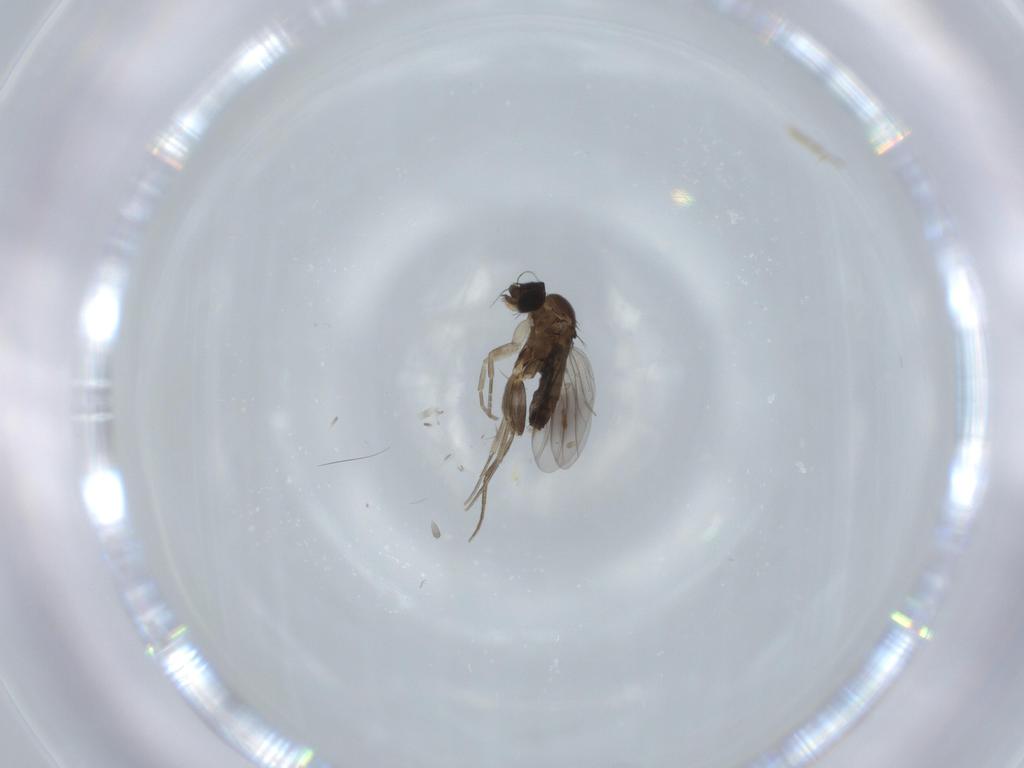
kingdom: Animalia
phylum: Arthropoda
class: Insecta
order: Diptera
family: Phoridae
